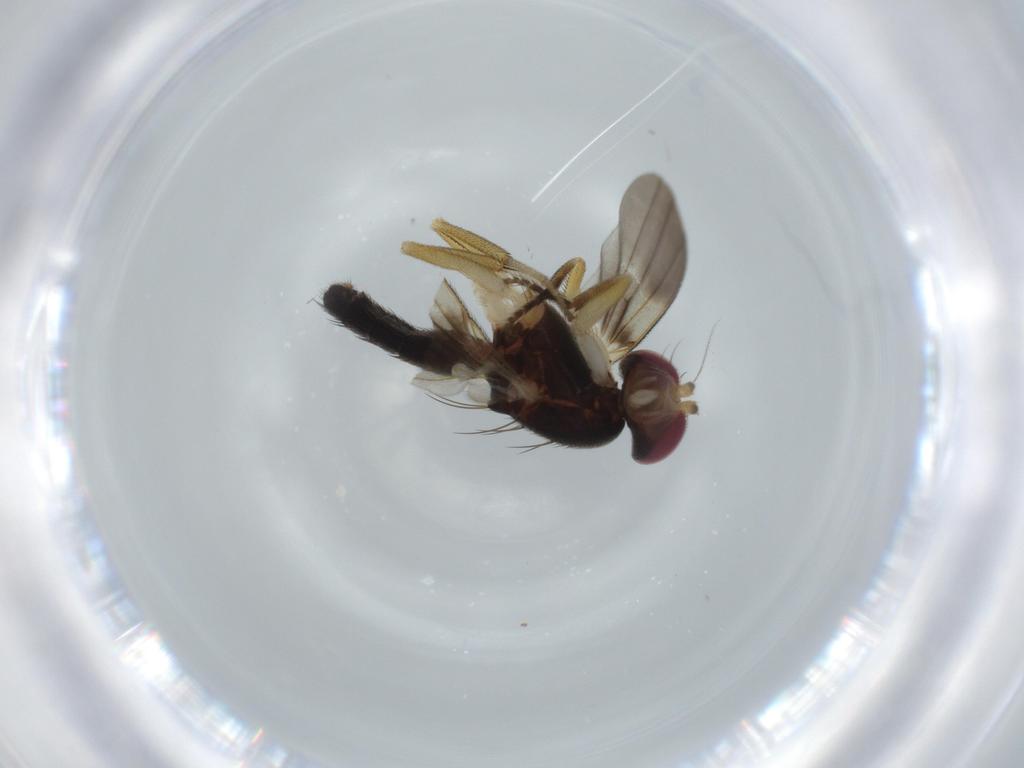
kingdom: Animalia
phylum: Arthropoda
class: Insecta
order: Diptera
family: Clusiidae
